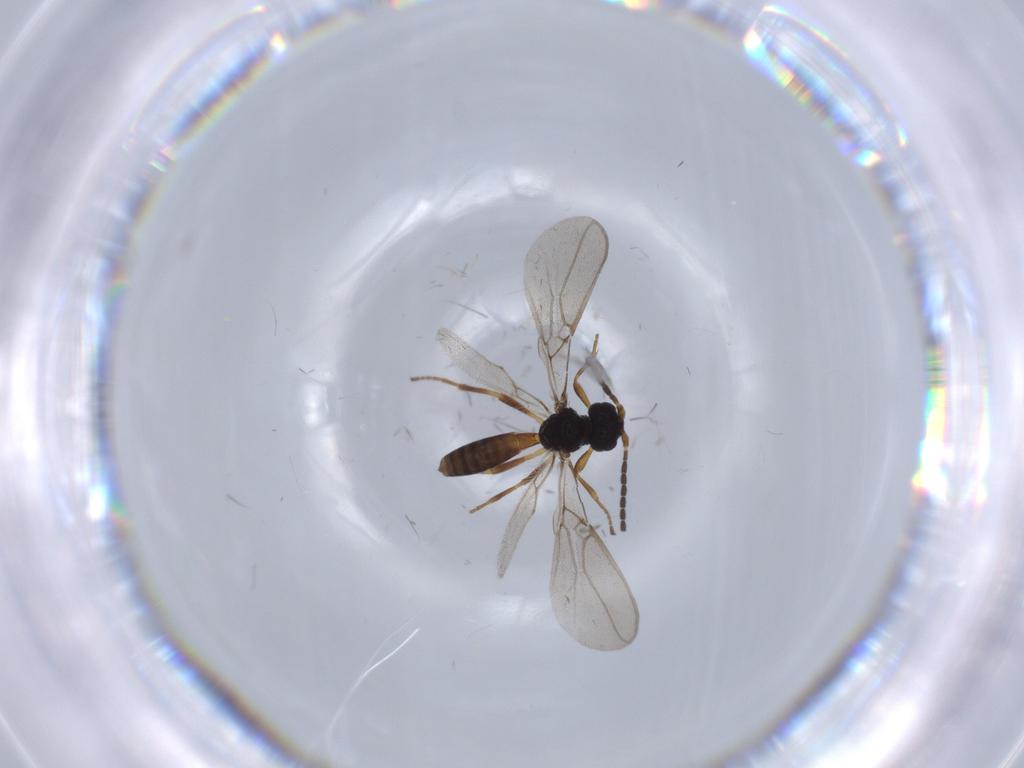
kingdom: Animalia
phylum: Arthropoda
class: Insecta
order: Hymenoptera
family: Braconidae
